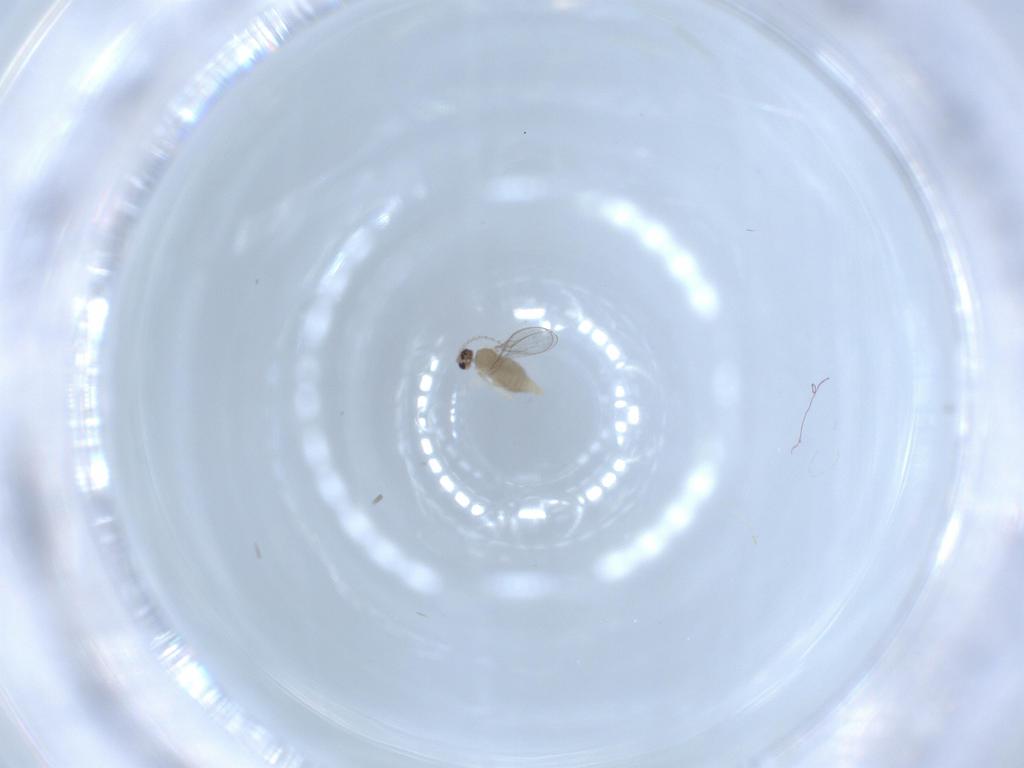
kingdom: Animalia
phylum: Arthropoda
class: Insecta
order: Diptera
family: Cecidomyiidae
